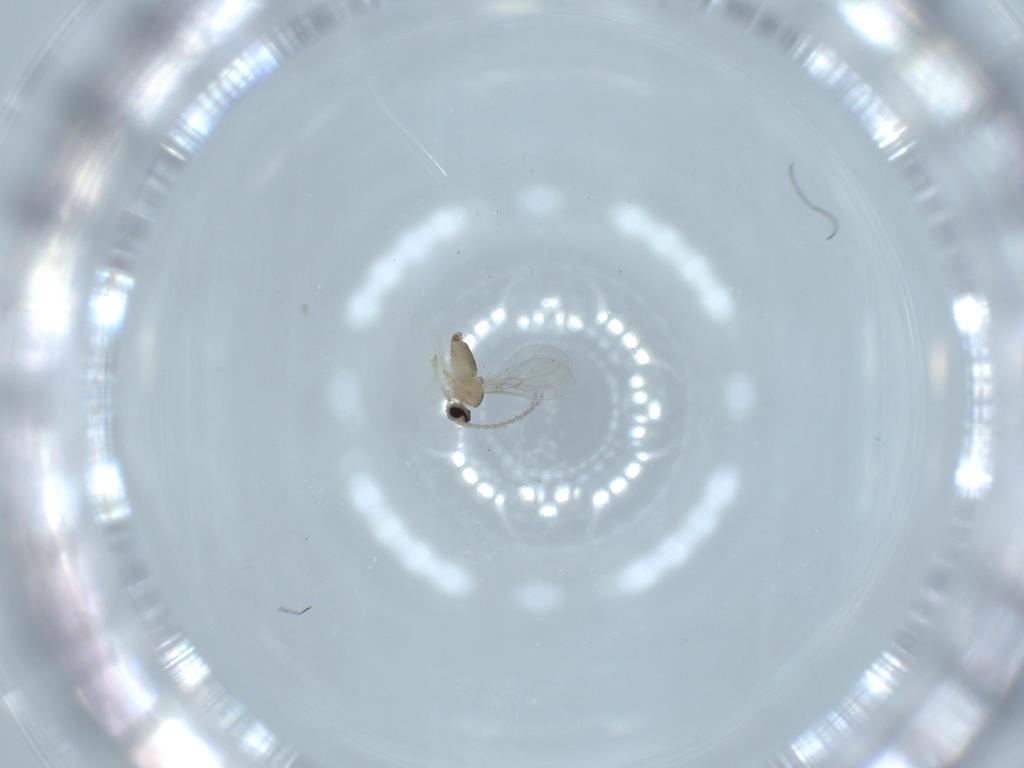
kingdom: Animalia
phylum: Arthropoda
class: Insecta
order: Diptera
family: Cecidomyiidae
